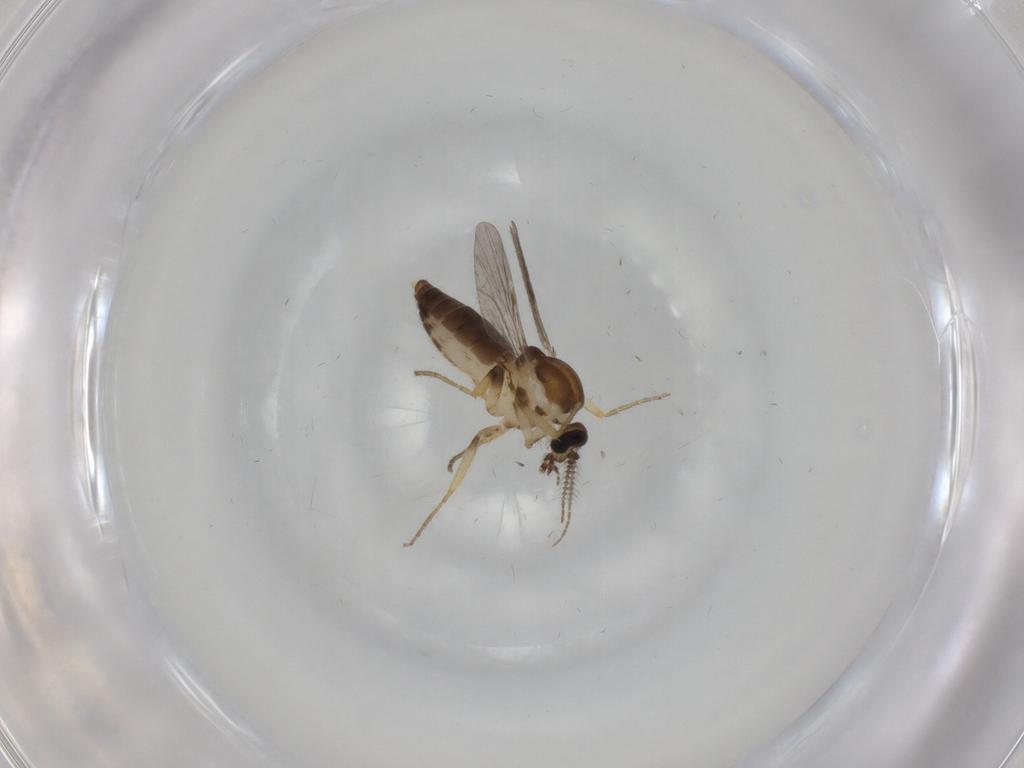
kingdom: Animalia
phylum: Arthropoda
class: Insecta
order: Diptera
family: Ceratopogonidae
